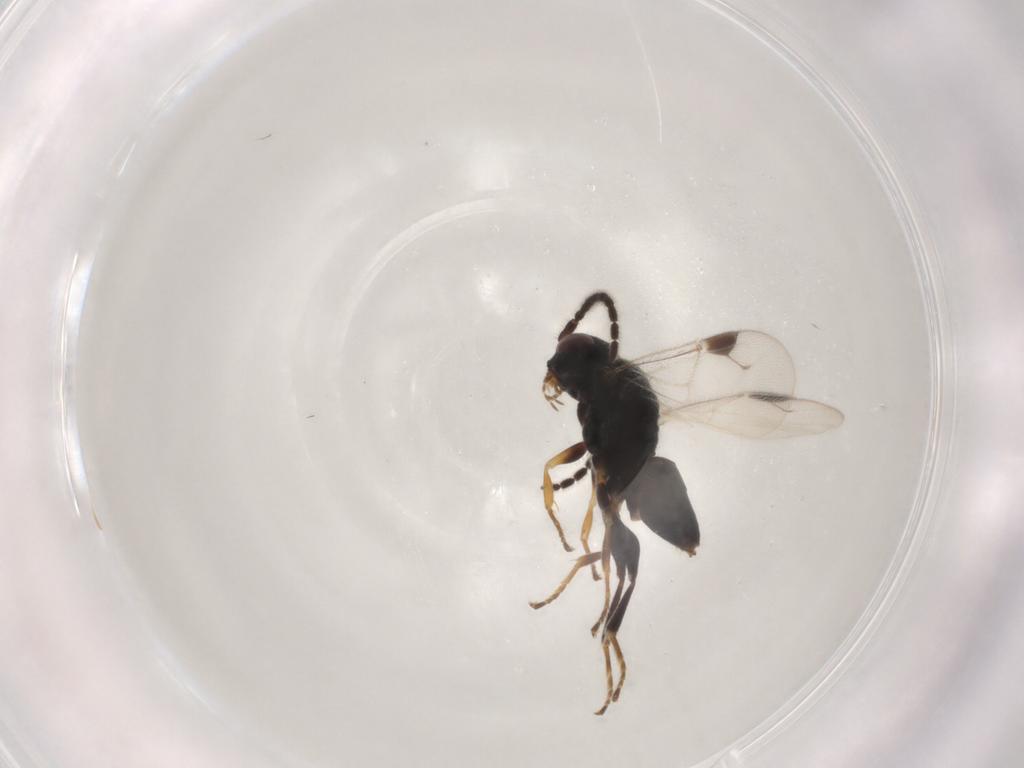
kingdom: Animalia
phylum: Arthropoda
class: Insecta
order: Hymenoptera
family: Dryinidae
